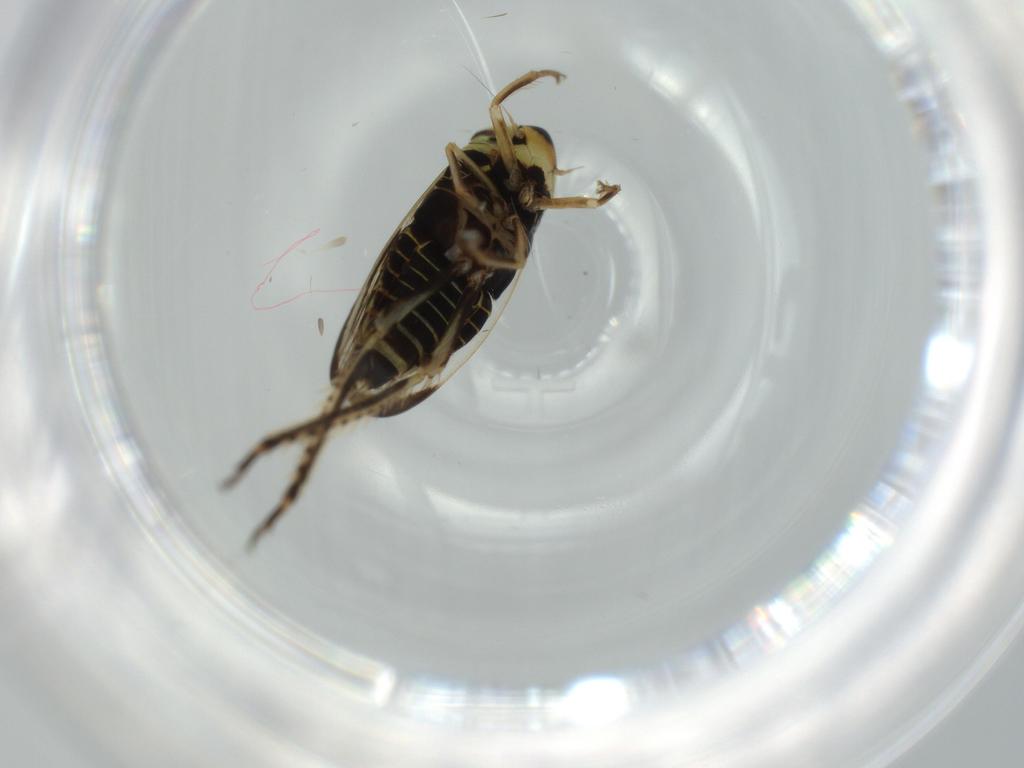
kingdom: Animalia
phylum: Arthropoda
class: Insecta
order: Hemiptera
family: Cicadellidae
